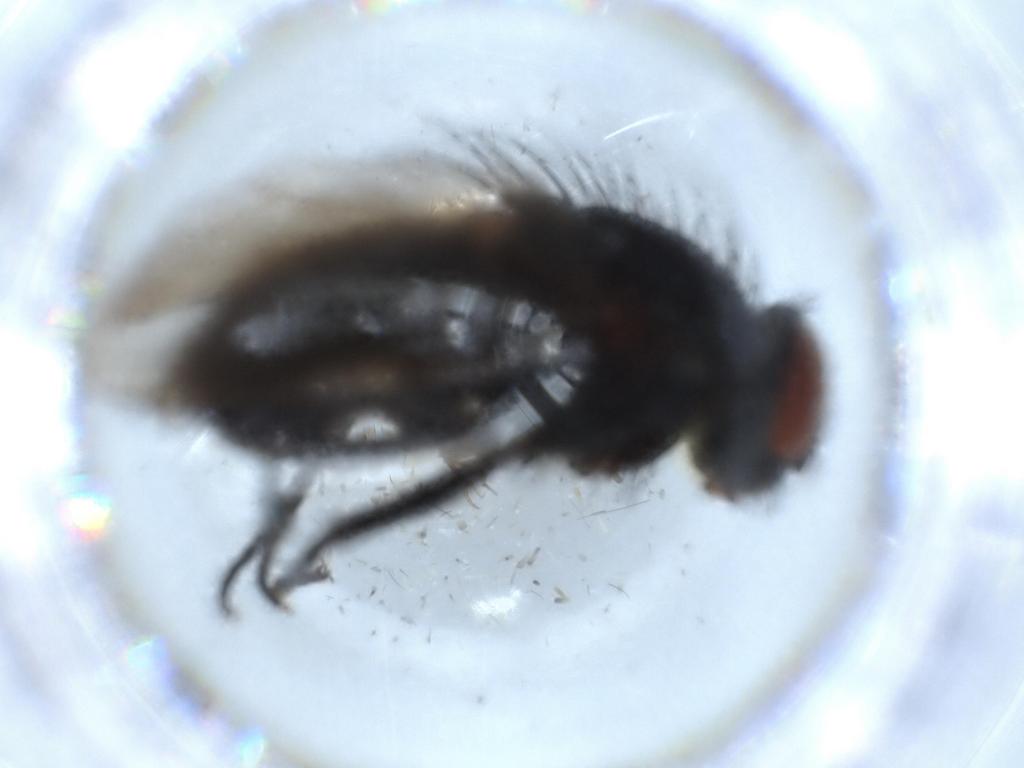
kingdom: Animalia
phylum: Arthropoda
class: Insecta
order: Diptera
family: Polleniidae
